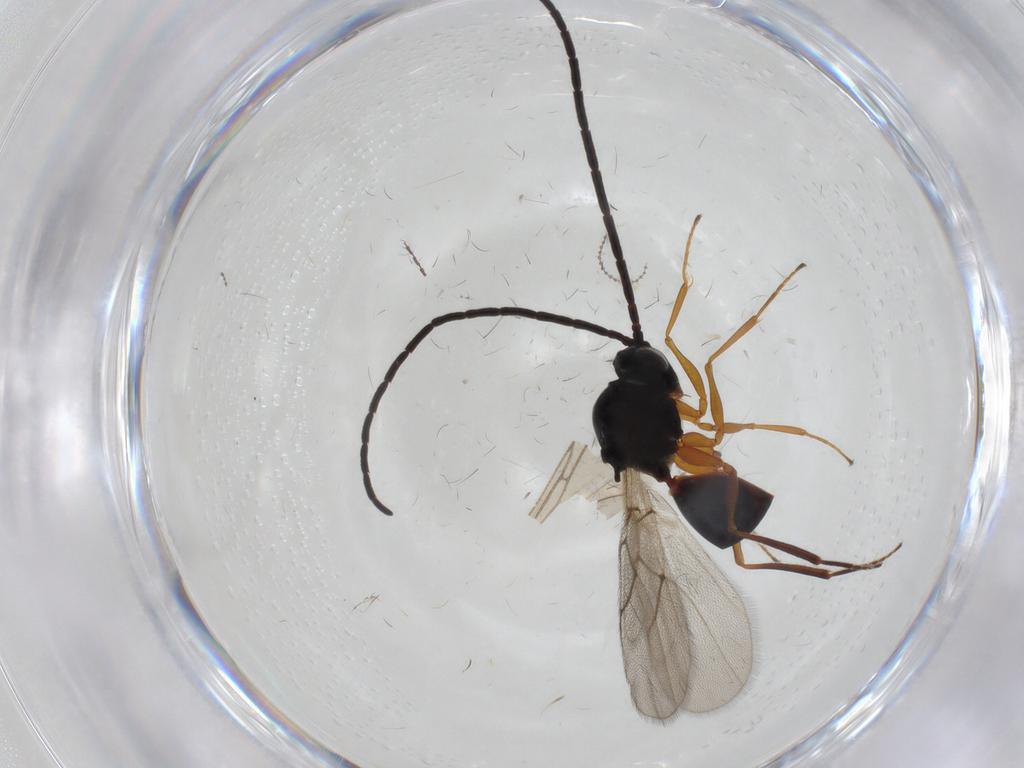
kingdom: Animalia
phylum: Arthropoda
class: Insecta
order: Hymenoptera
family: Figitidae
